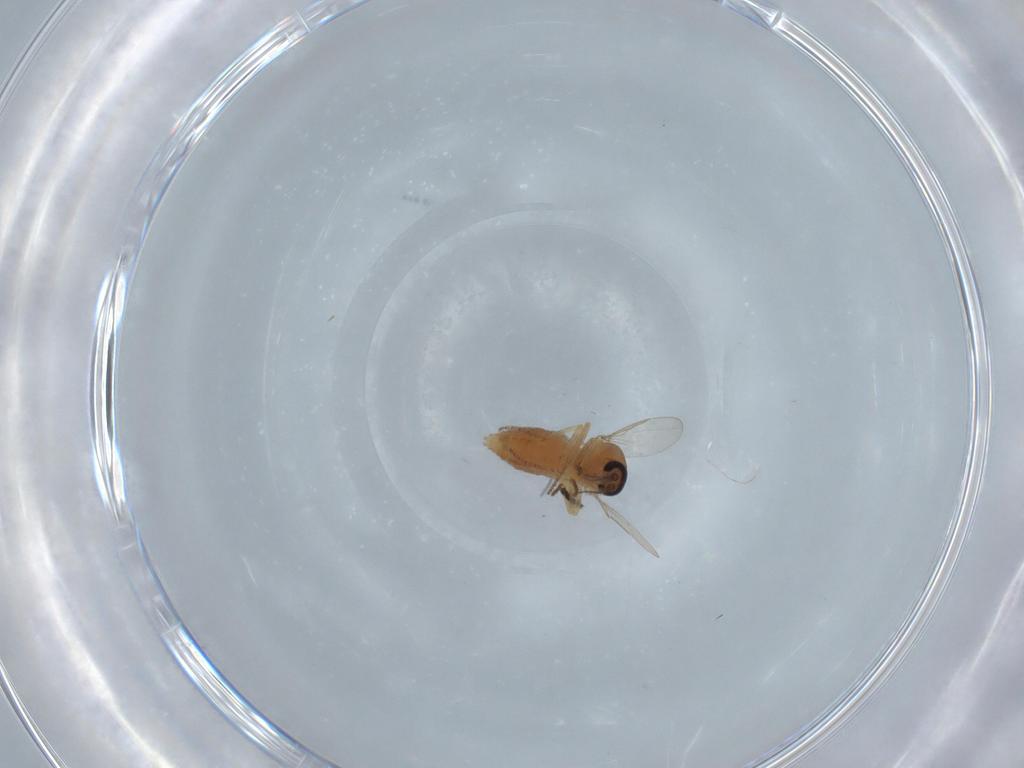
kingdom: Animalia
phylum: Arthropoda
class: Insecta
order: Diptera
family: Ceratopogonidae
